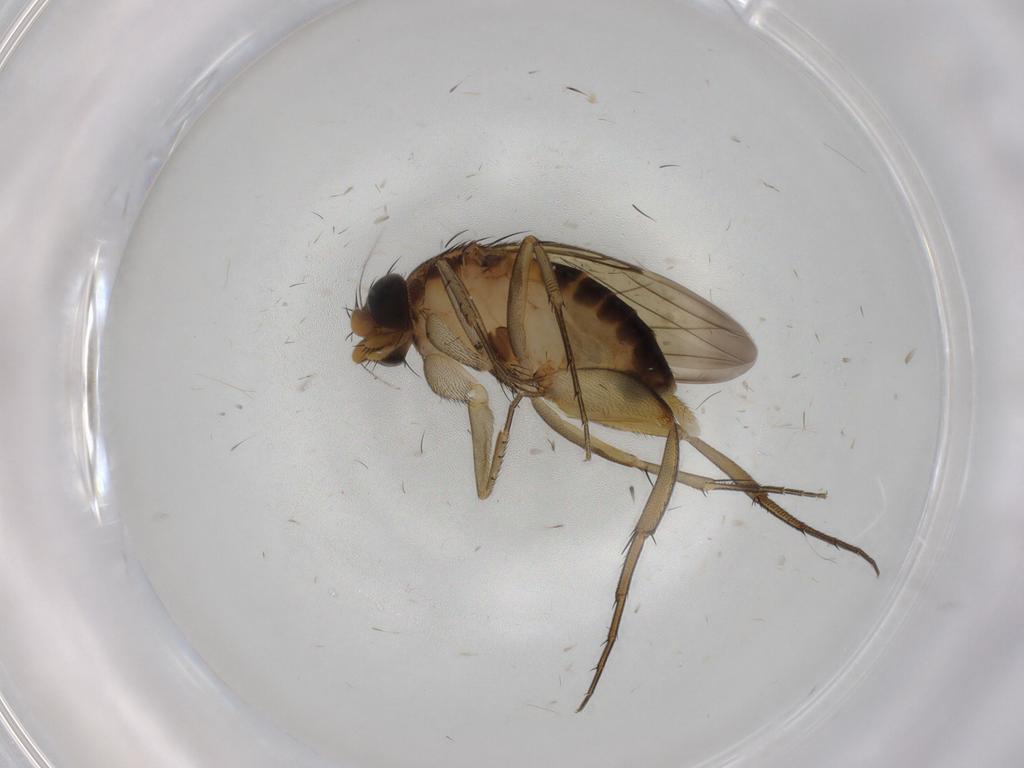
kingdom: Animalia
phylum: Arthropoda
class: Insecta
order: Diptera
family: Phoridae
